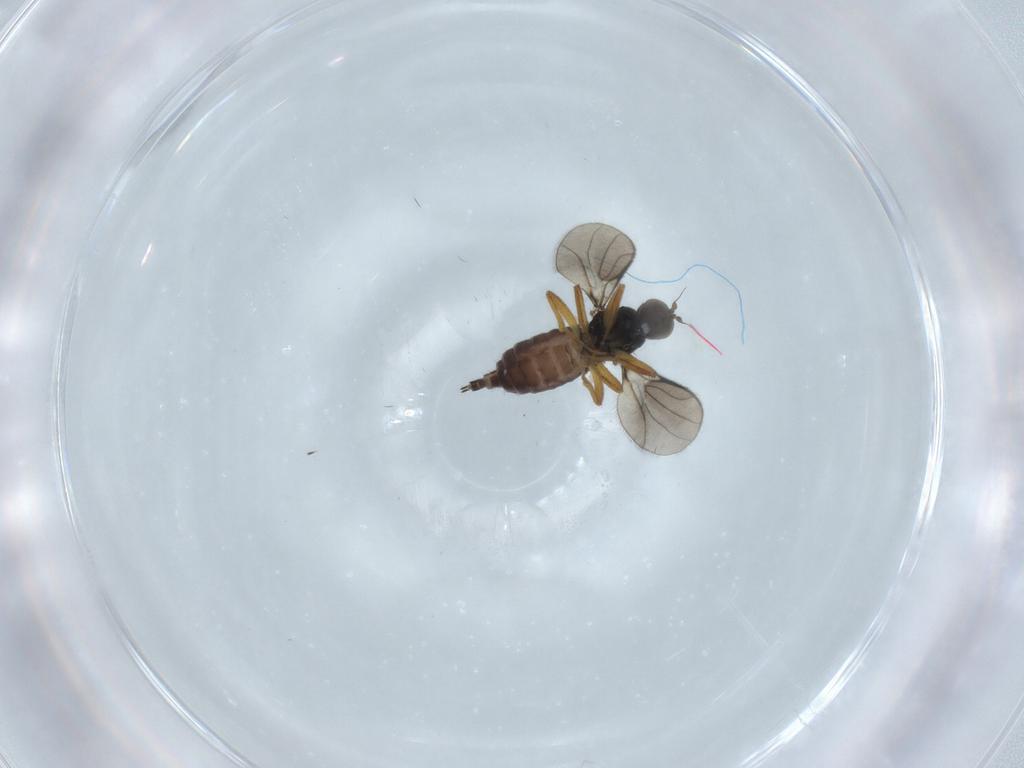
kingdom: Animalia
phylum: Arthropoda
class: Insecta
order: Diptera
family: Hybotidae
